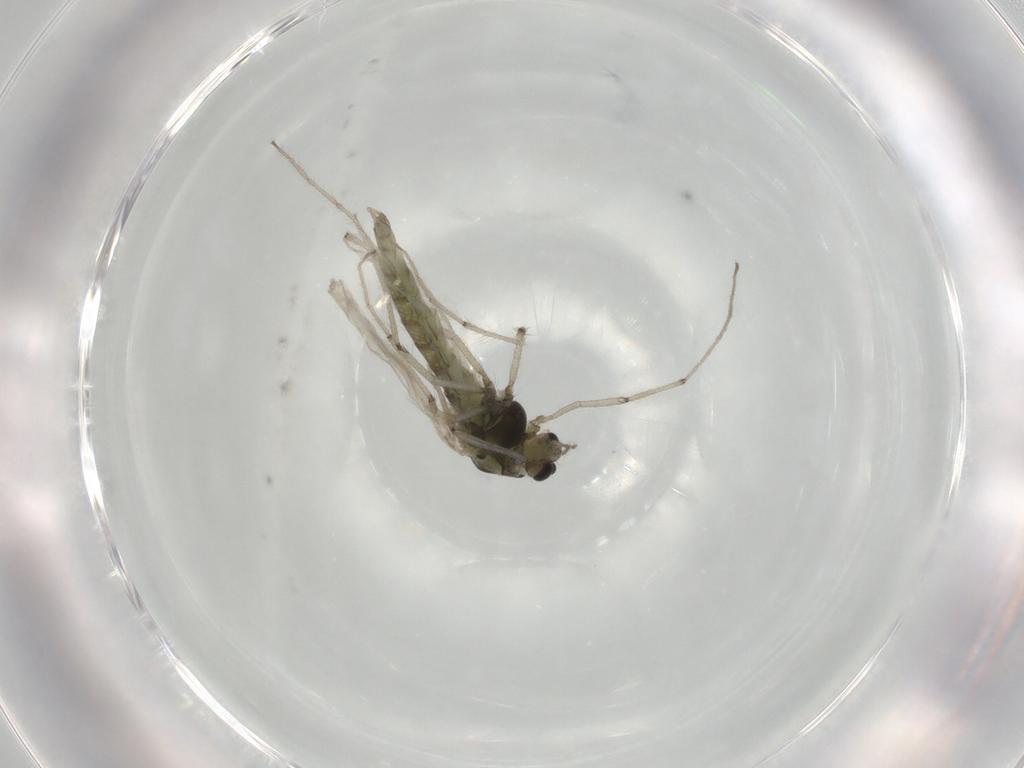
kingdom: Animalia
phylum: Arthropoda
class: Insecta
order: Diptera
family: Chironomidae
